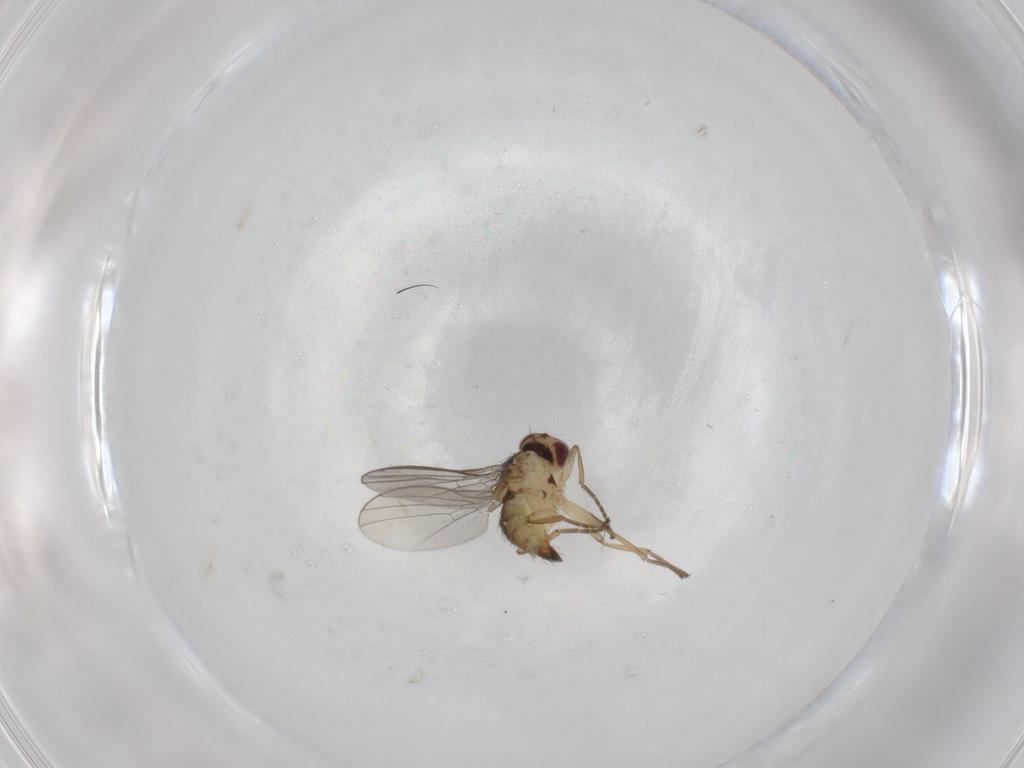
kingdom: Animalia
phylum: Arthropoda
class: Insecta
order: Diptera
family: Agromyzidae
